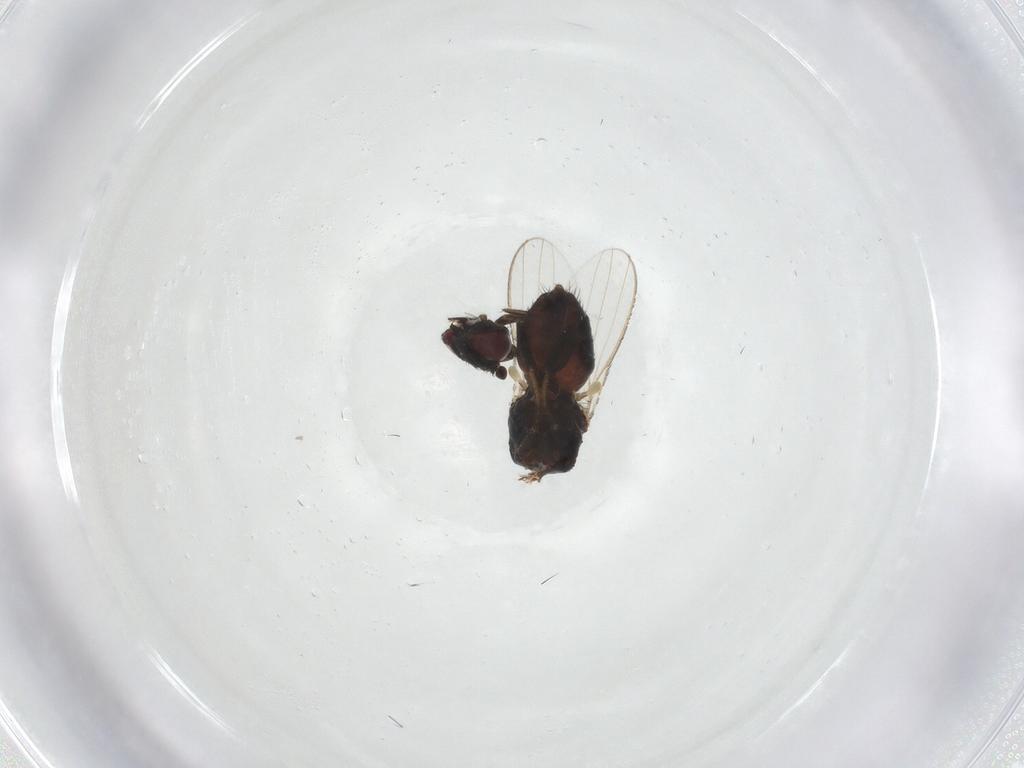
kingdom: Animalia
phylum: Arthropoda
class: Insecta
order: Diptera
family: Milichiidae
